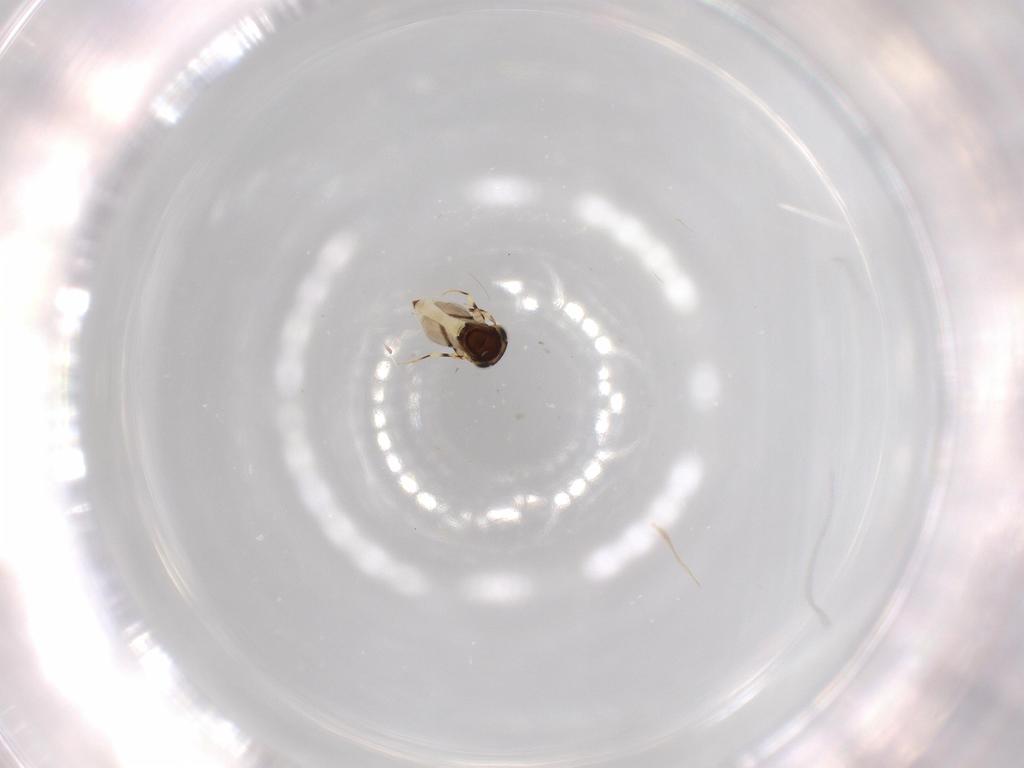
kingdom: Animalia
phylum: Arthropoda
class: Insecta
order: Hymenoptera
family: Scelionidae
